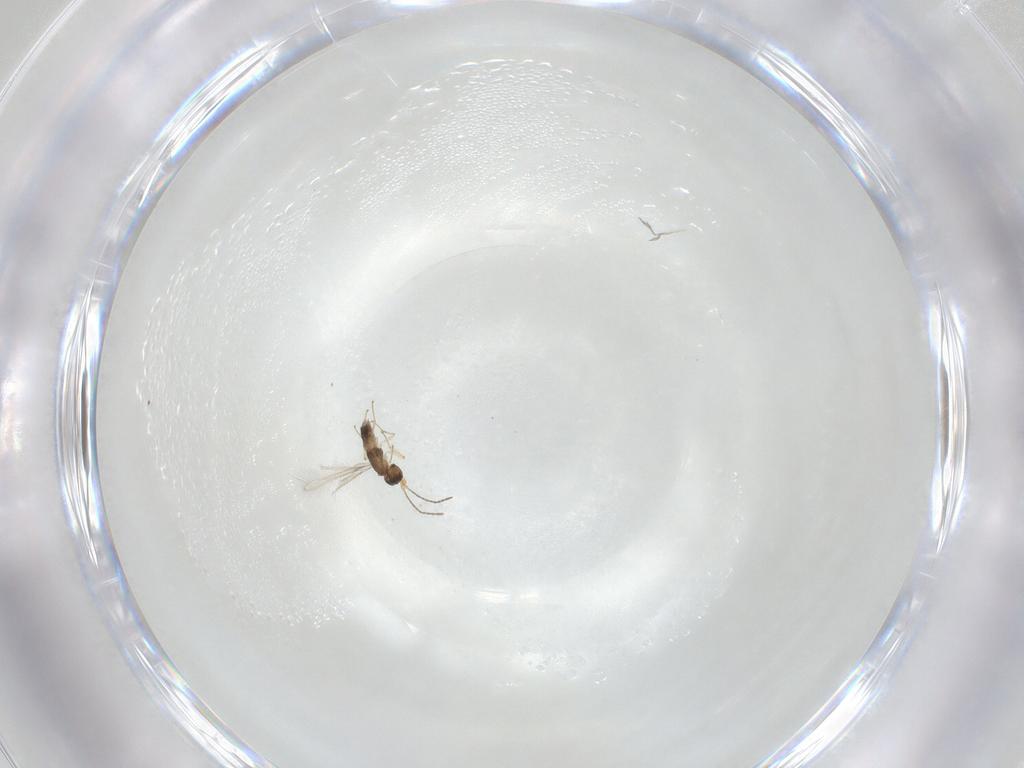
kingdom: Animalia
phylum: Arthropoda
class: Insecta
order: Hymenoptera
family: Mymaridae
